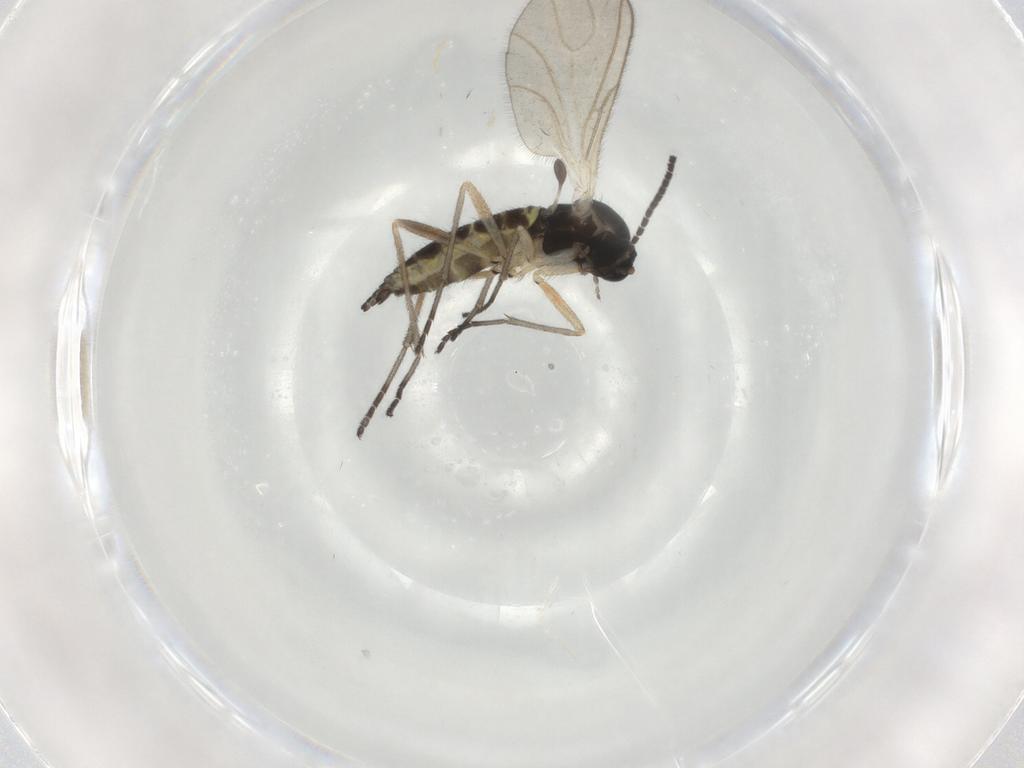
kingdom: Animalia
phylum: Arthropoda
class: Insecta
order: Diptera
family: Sciaridae
